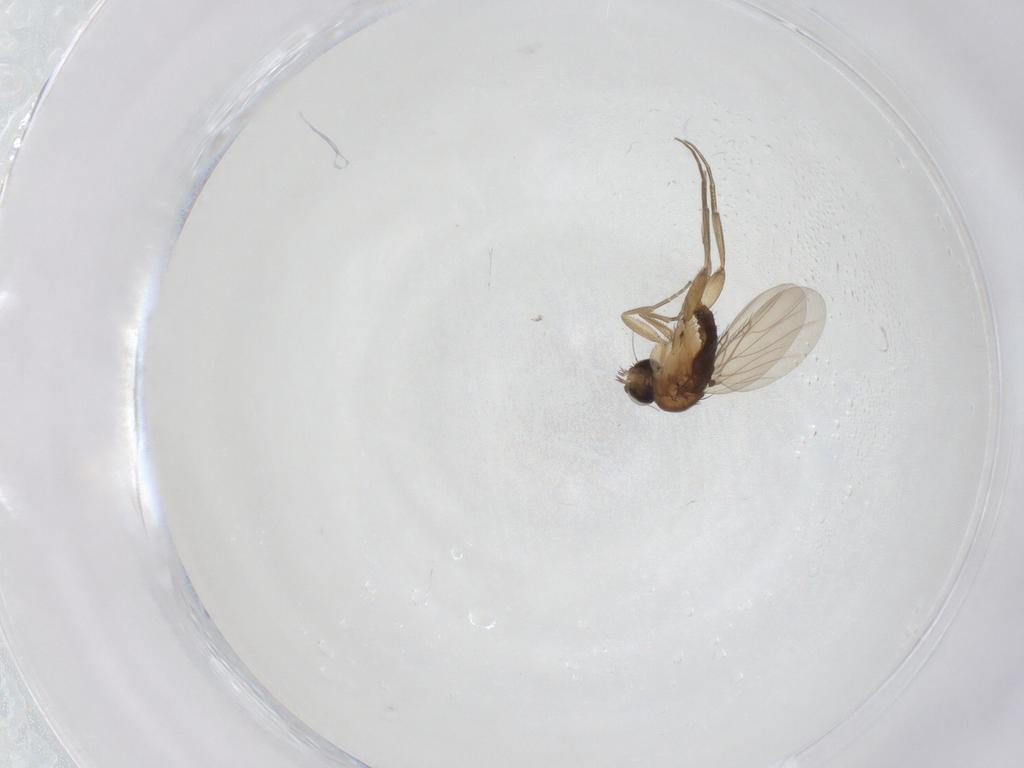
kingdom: Animalia
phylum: Arthropoda
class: Insecta
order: Diptera
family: Phoridae
